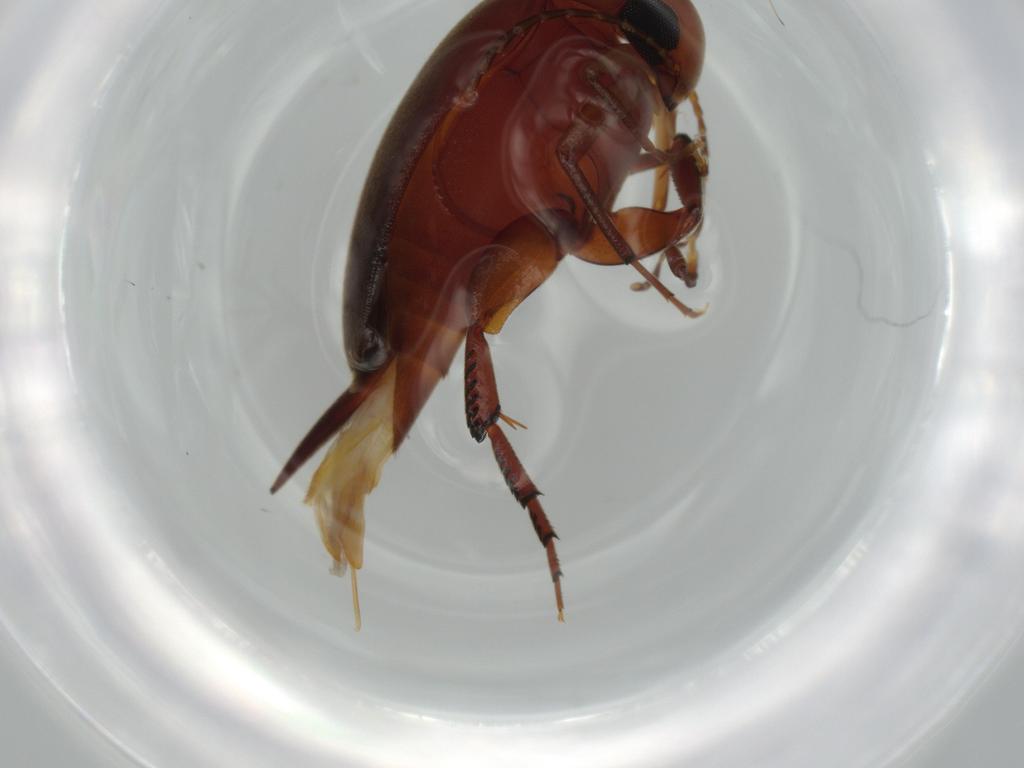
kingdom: Animalia
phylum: Arthropoda
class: Insecta
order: Coleoptera
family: Mordellidae
